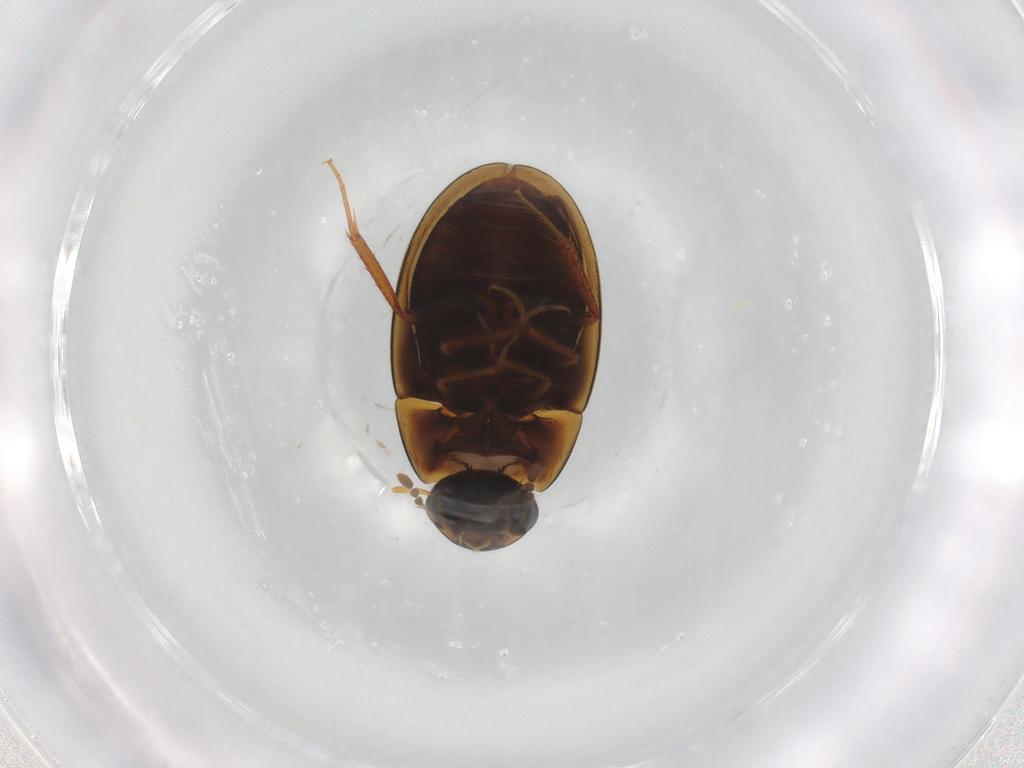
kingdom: Animalia
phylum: Arthropoda
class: Insecta
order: Coleoptera
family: Hydrophilidae
